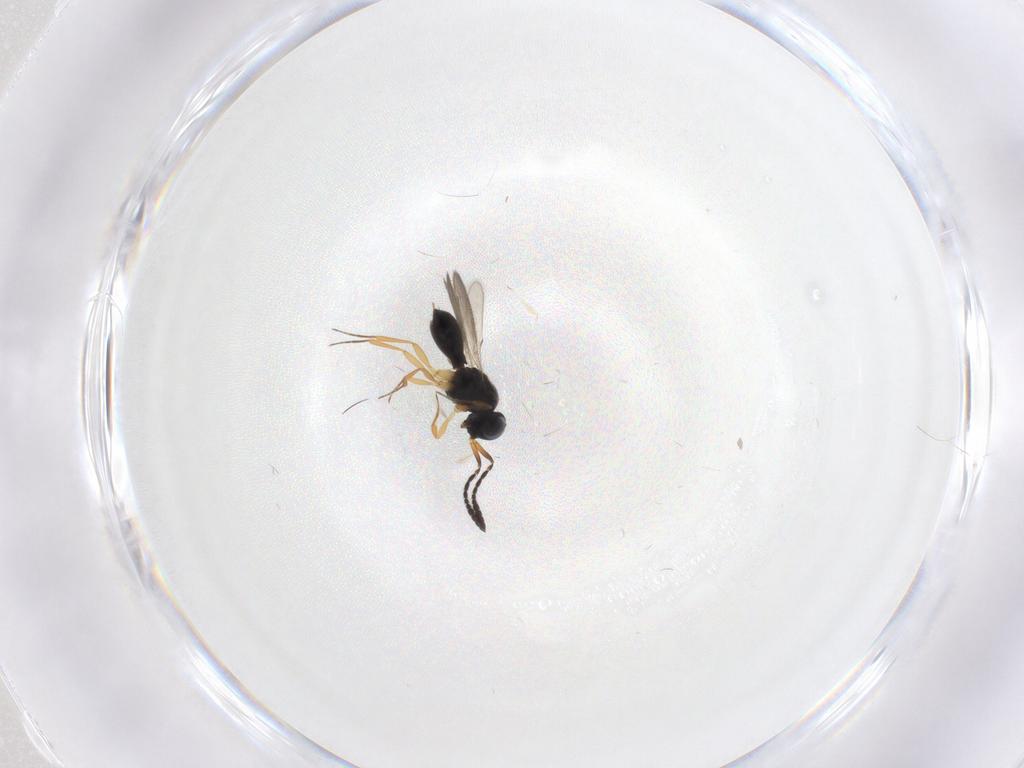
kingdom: Animalia
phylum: Arthropoda
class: Insecta
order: Hymenoptera
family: Scelionidae
